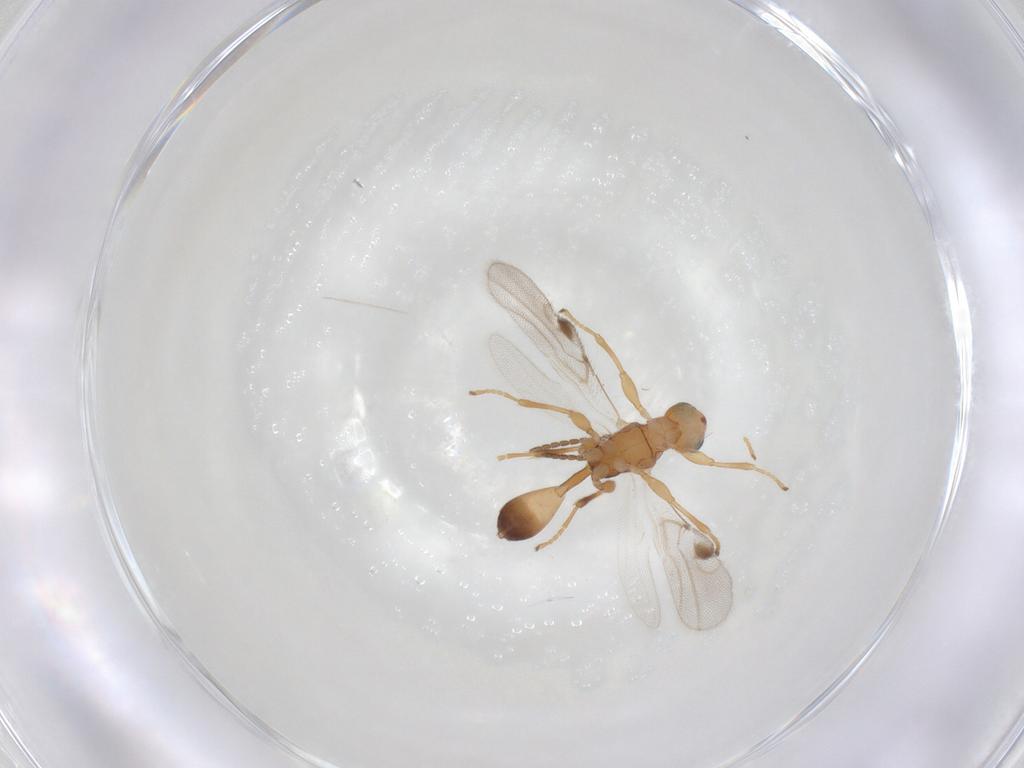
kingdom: Animalia
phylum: Arthropoda
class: Insecta
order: Hymenoptera
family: Braconidae
